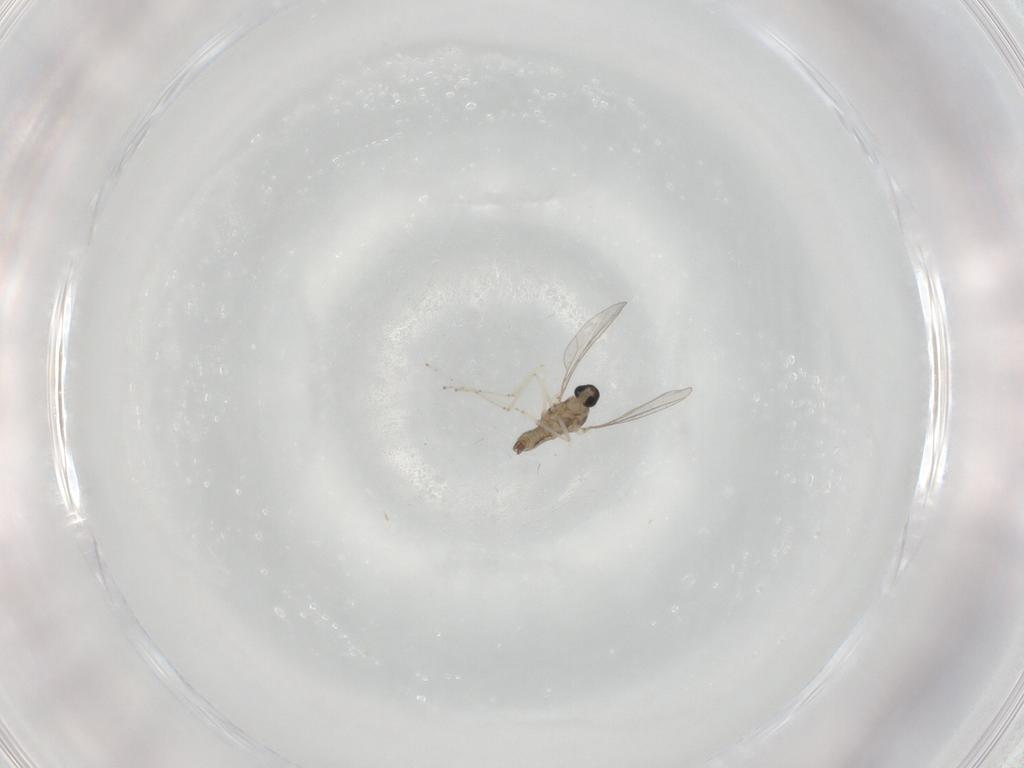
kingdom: Animalia
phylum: Arthropoda
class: Insecta
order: Diptera
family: Cecidomyiidae
